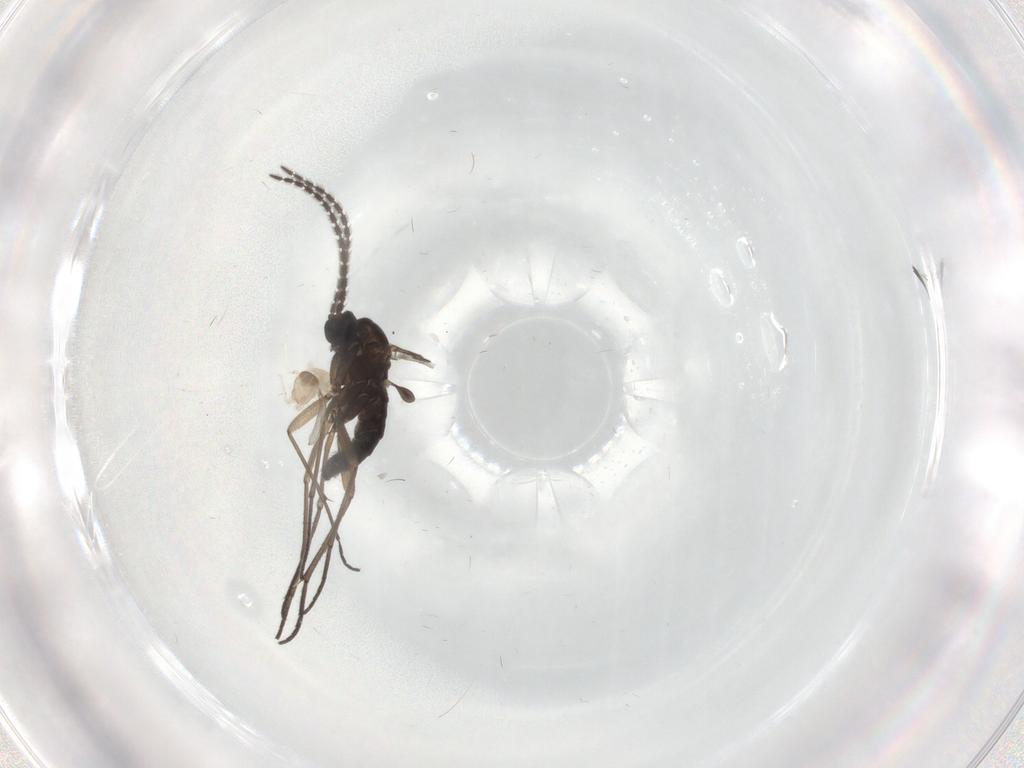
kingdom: Animalia
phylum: Arthropoda
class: Insecta
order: Diptera
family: Sciaridae
